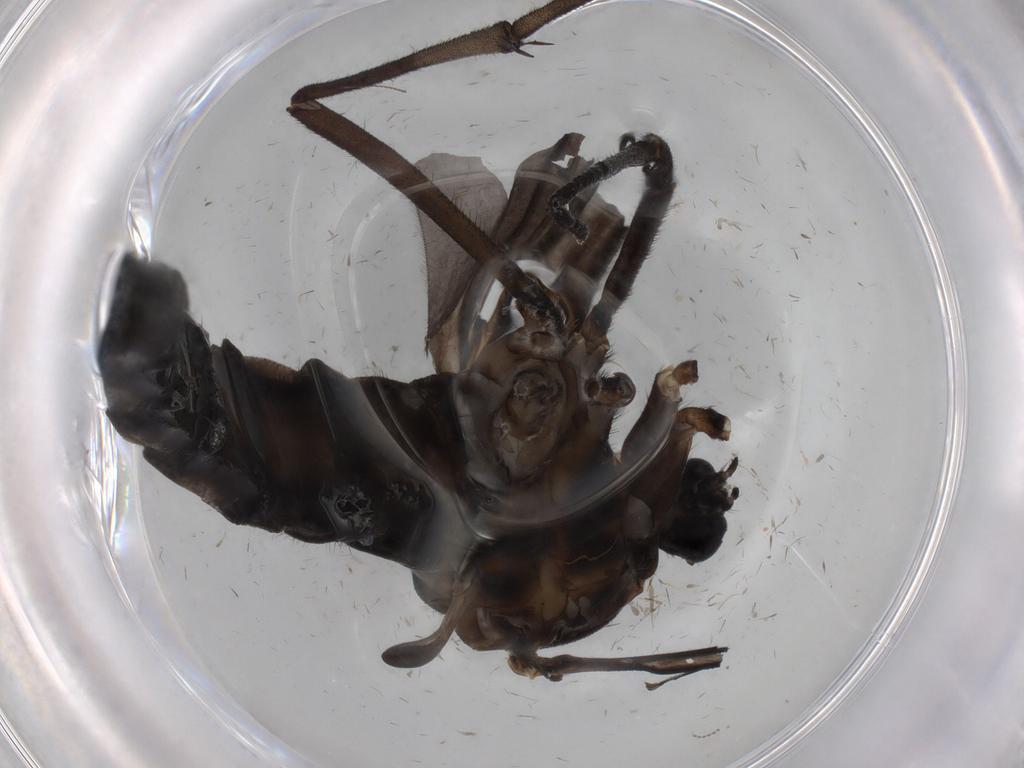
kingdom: Animalia
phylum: Arthropoda
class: Insecta
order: Diptera
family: Sciaridae
